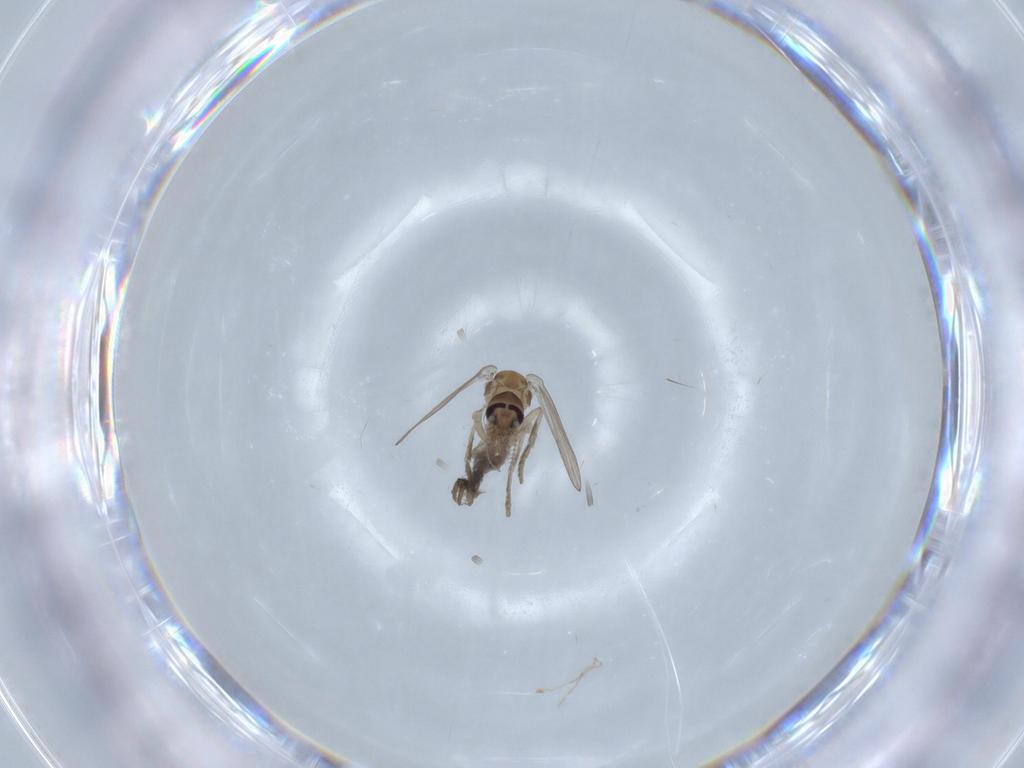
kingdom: Animalia
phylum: Arthropoda
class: Insecta
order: Diptera
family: Psychodidae
